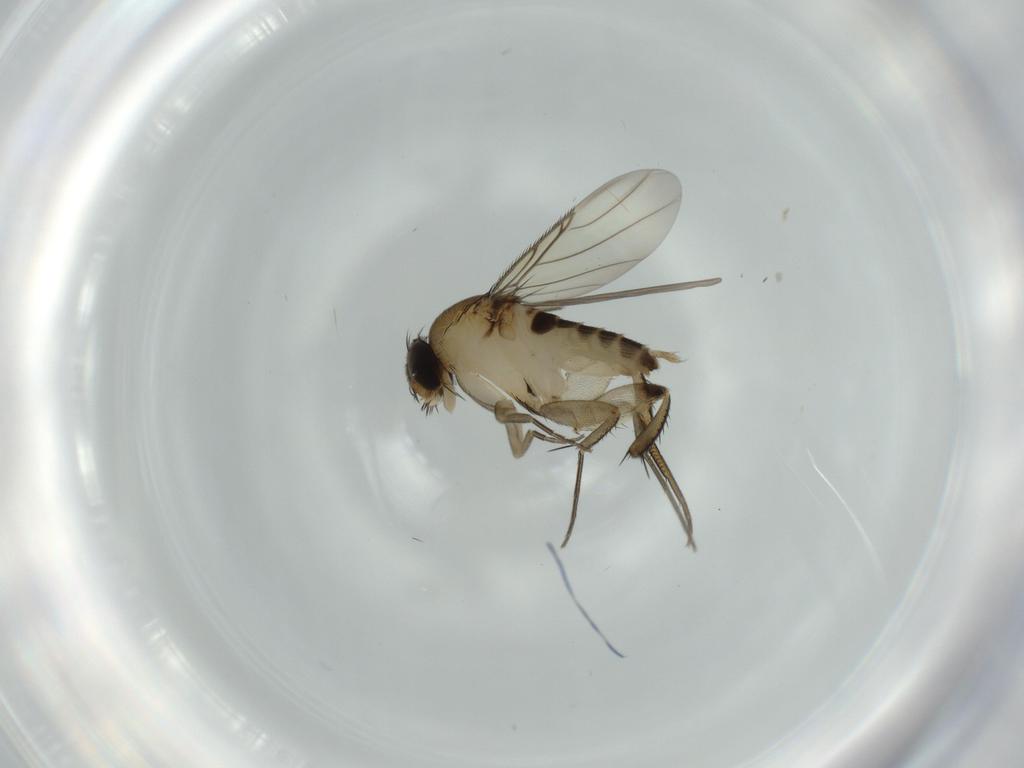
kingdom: Animalia
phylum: Arthropoda
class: Insecta
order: Diptera
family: Phoridae
